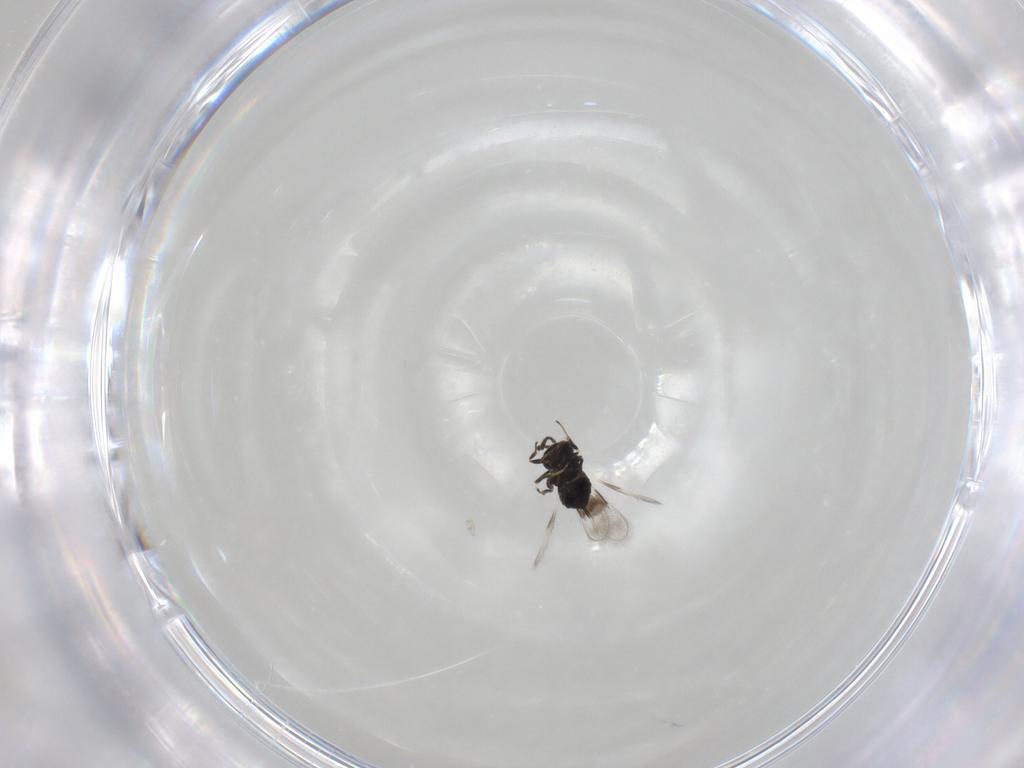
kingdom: Animalia
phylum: Arthropoda
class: Insecta
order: Hymenoptera
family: Azotidae
